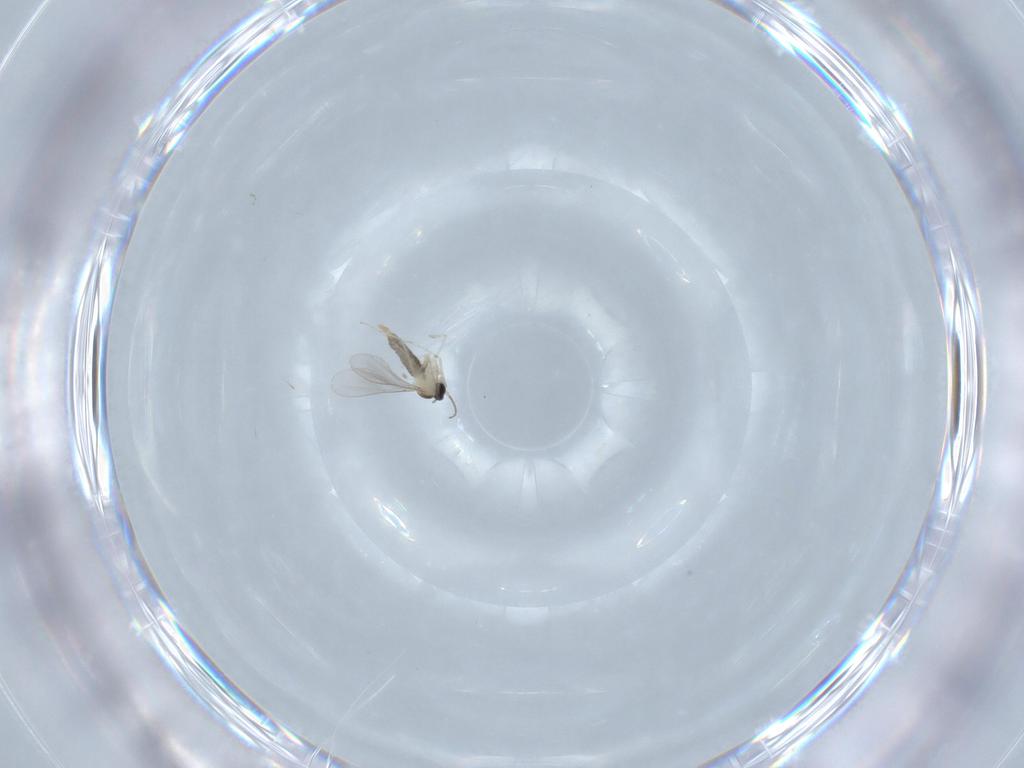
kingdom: Animalia
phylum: Arthropoda
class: Insecta
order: Diptera
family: Cecidomyiidae
